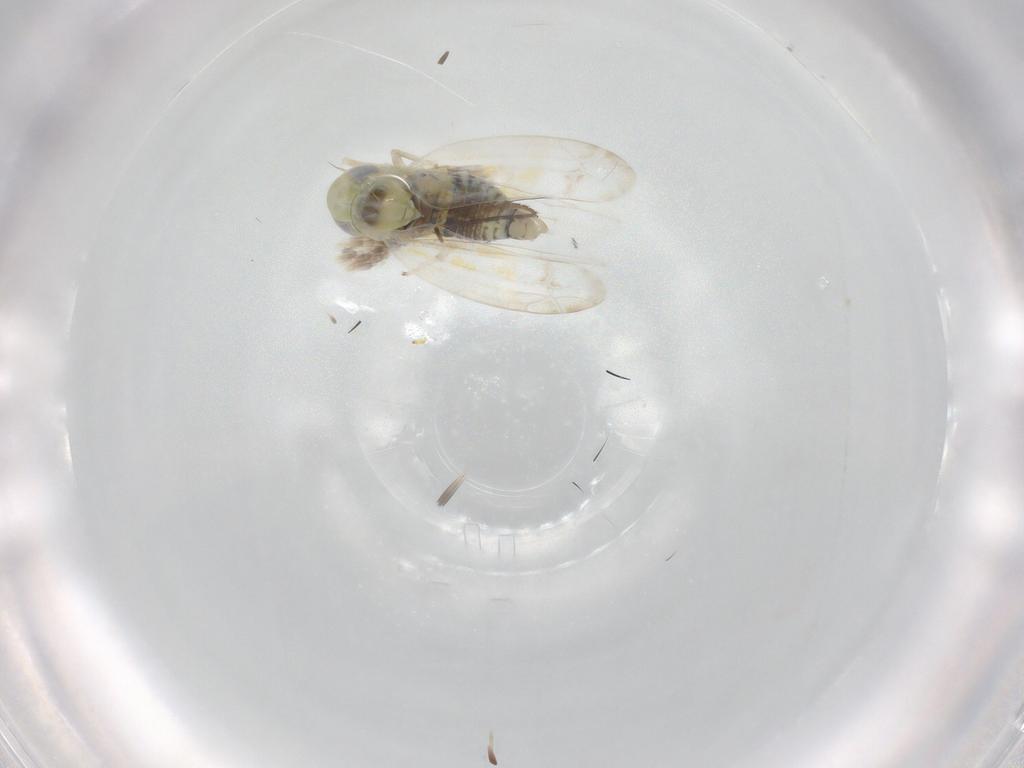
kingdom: Animalia
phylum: Arthropoda
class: Insecta
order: Hemiptera
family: Cicadellidae
